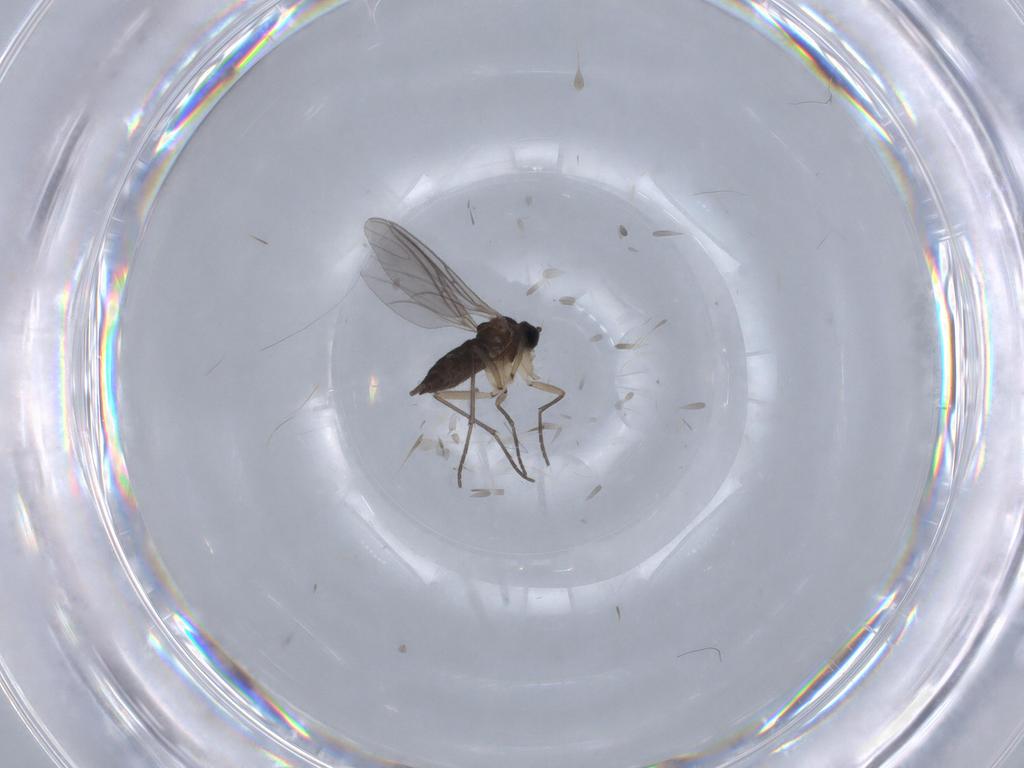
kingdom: Animalia
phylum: Arthropoda
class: Insecta
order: Diptera
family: Sciaridae
